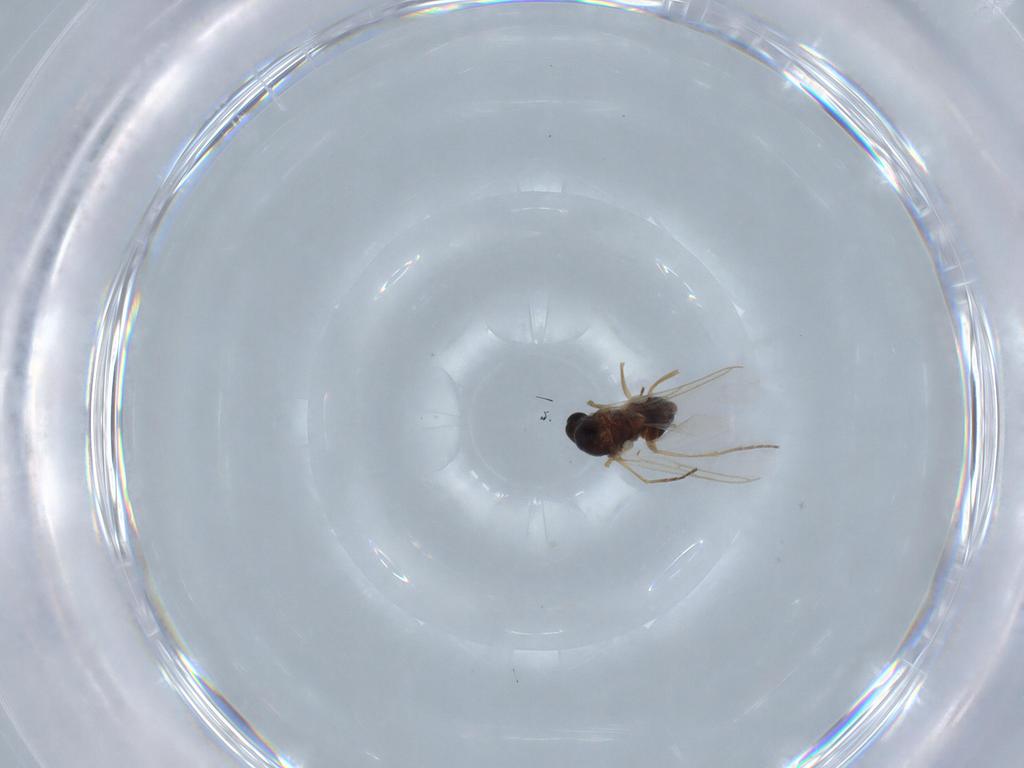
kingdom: Animalia
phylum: Arthropoda
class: Insecta
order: Diptera
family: Sciaridae
